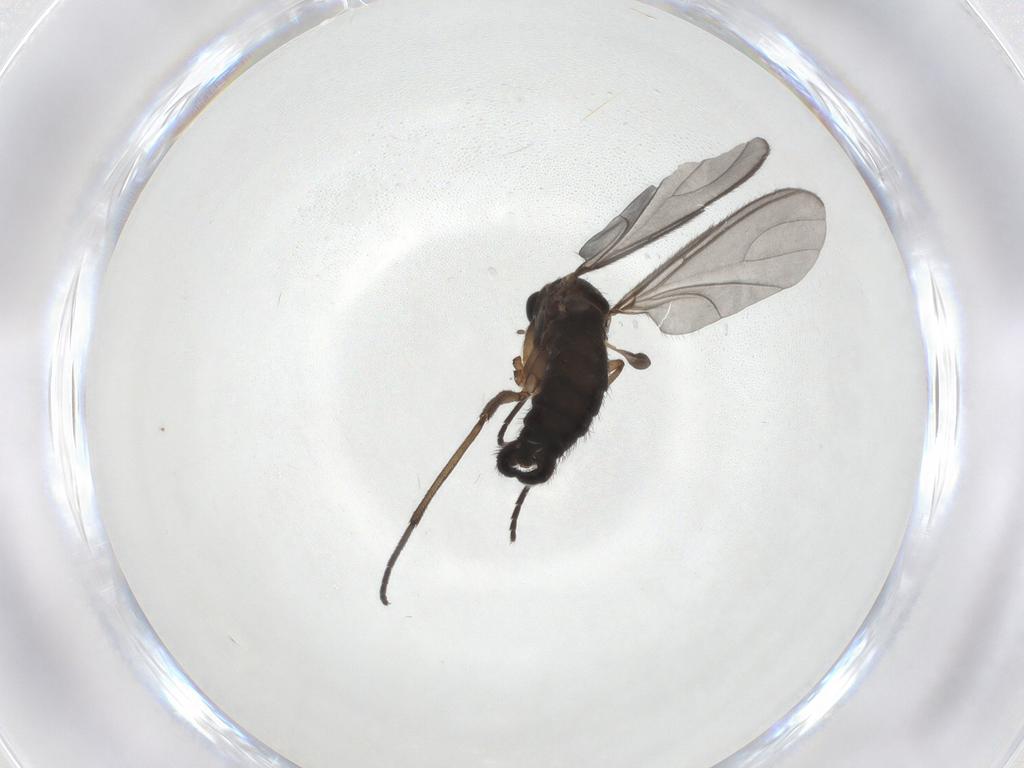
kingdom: Animalia
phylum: Arthropoda
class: Insecta
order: Diptera
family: Sciaridae
